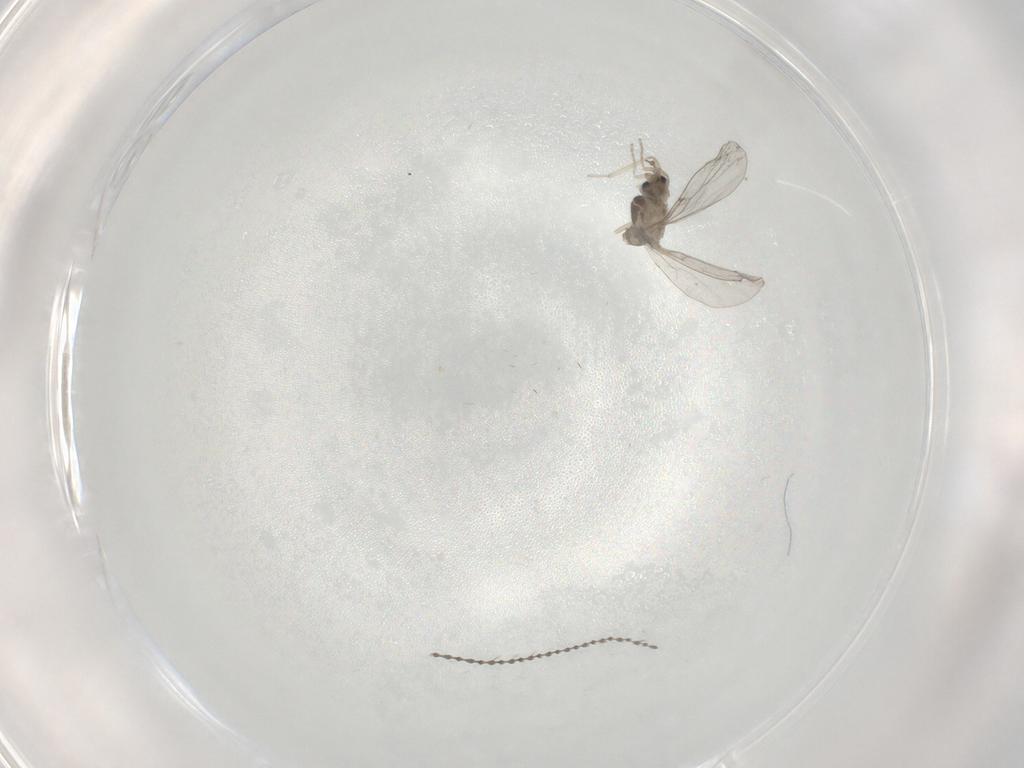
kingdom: Animalia
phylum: Arthropoda
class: Insecta
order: Diptera
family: Cecidomyiidae
